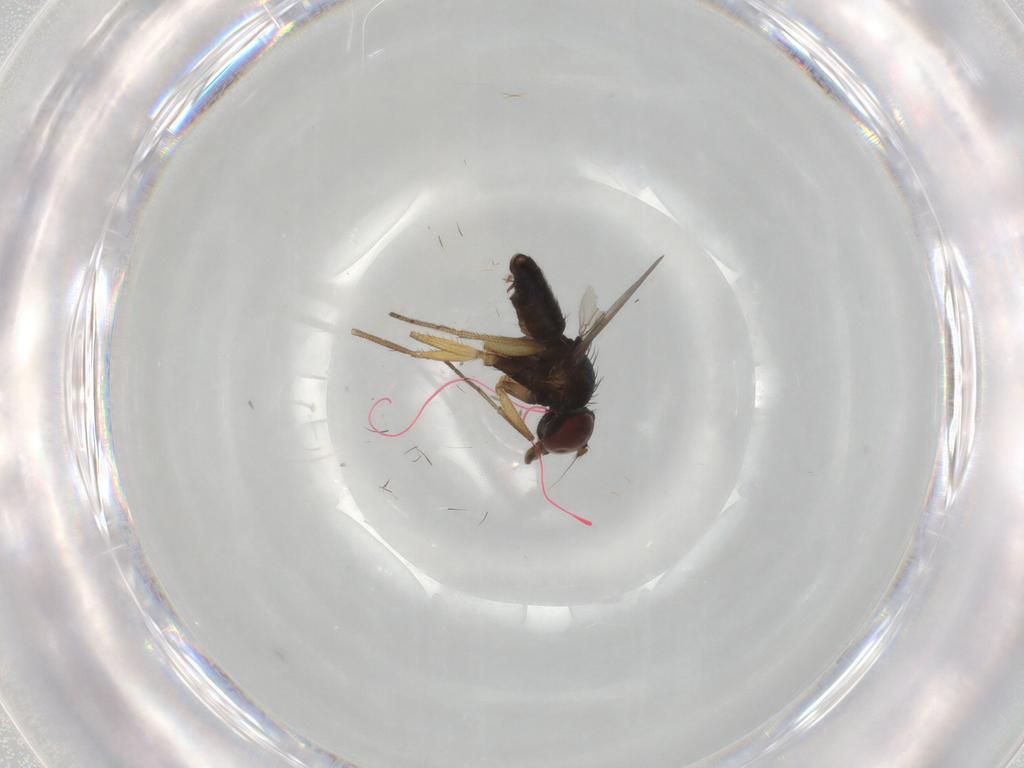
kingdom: Animalia
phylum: Arthropoda
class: Insecta
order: Diptera
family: Dolichopodidae
